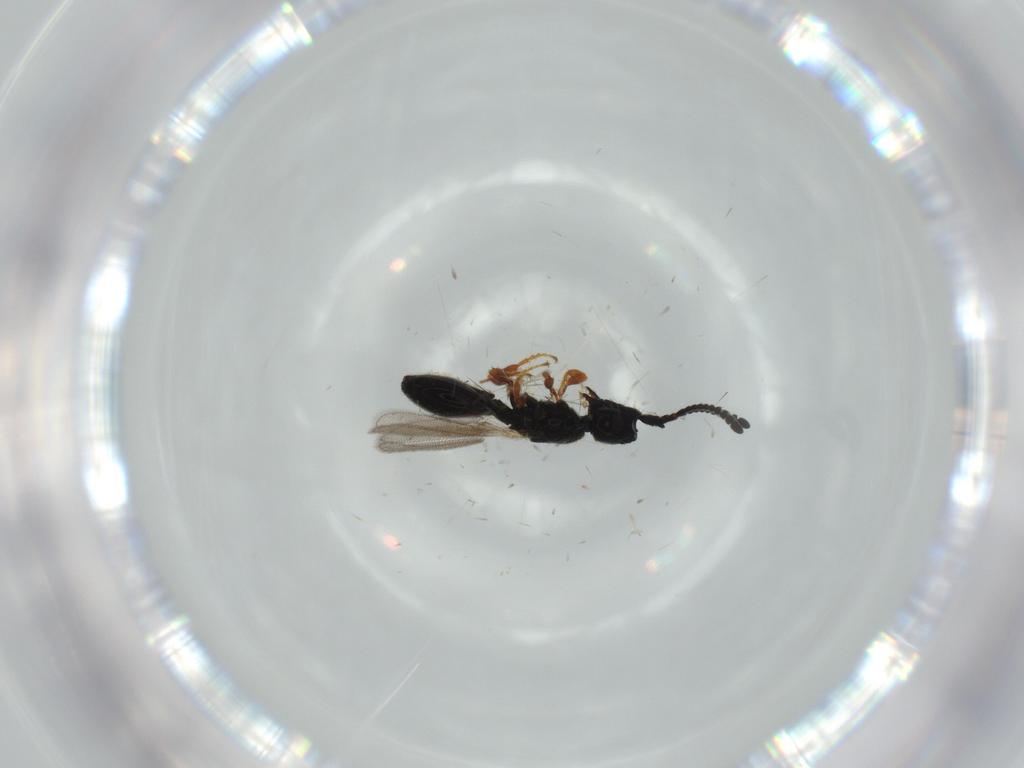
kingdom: Animalia
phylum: Arthropoda
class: Insecta
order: Hymenoptera
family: Diapriidae
